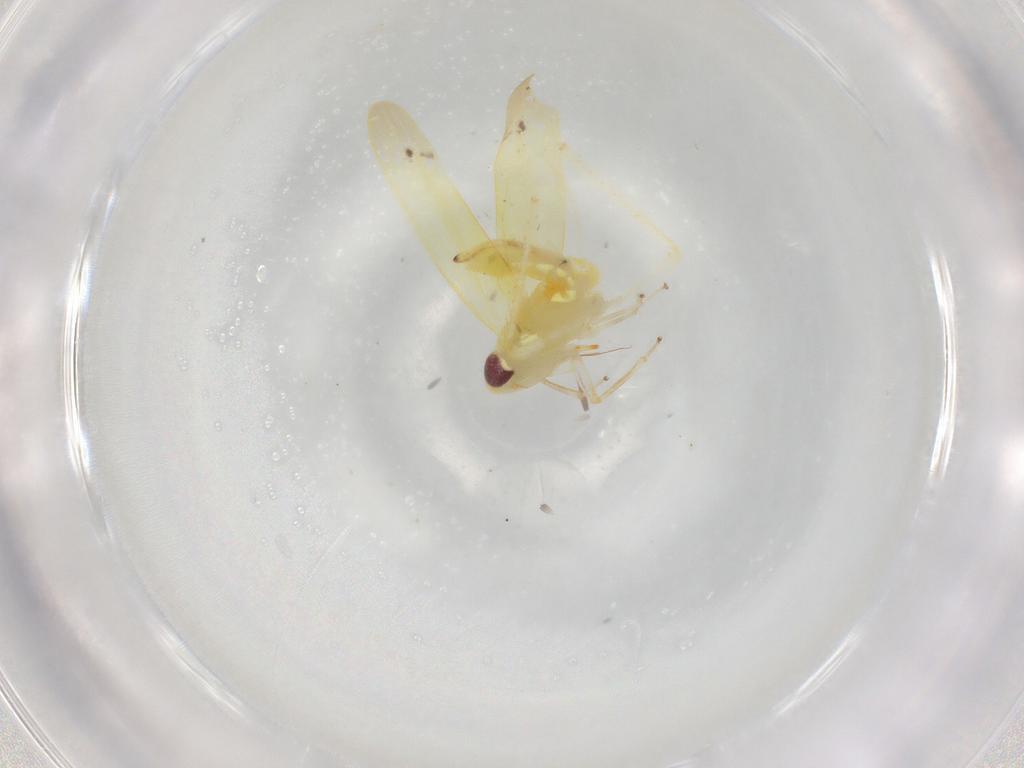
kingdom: Animalia
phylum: Arthropoda
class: Insecta
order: Hemiptera
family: Cicadellidae
